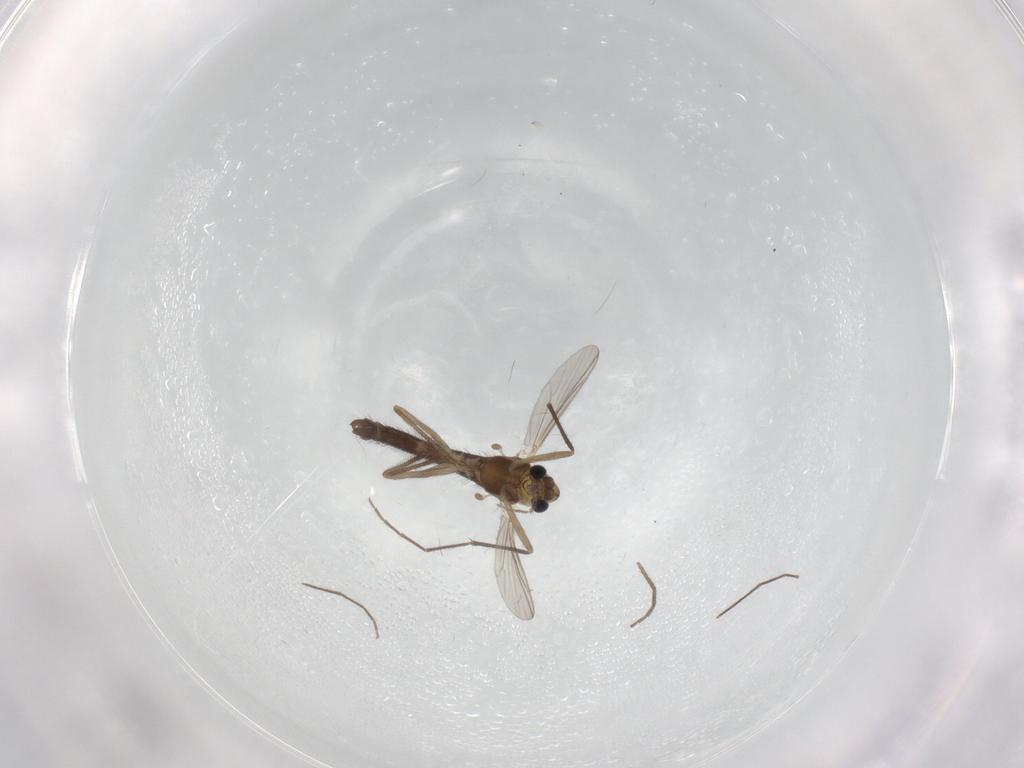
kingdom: Animalia
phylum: Arthropoda
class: Insecta
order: Diptera
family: Chironomidae
